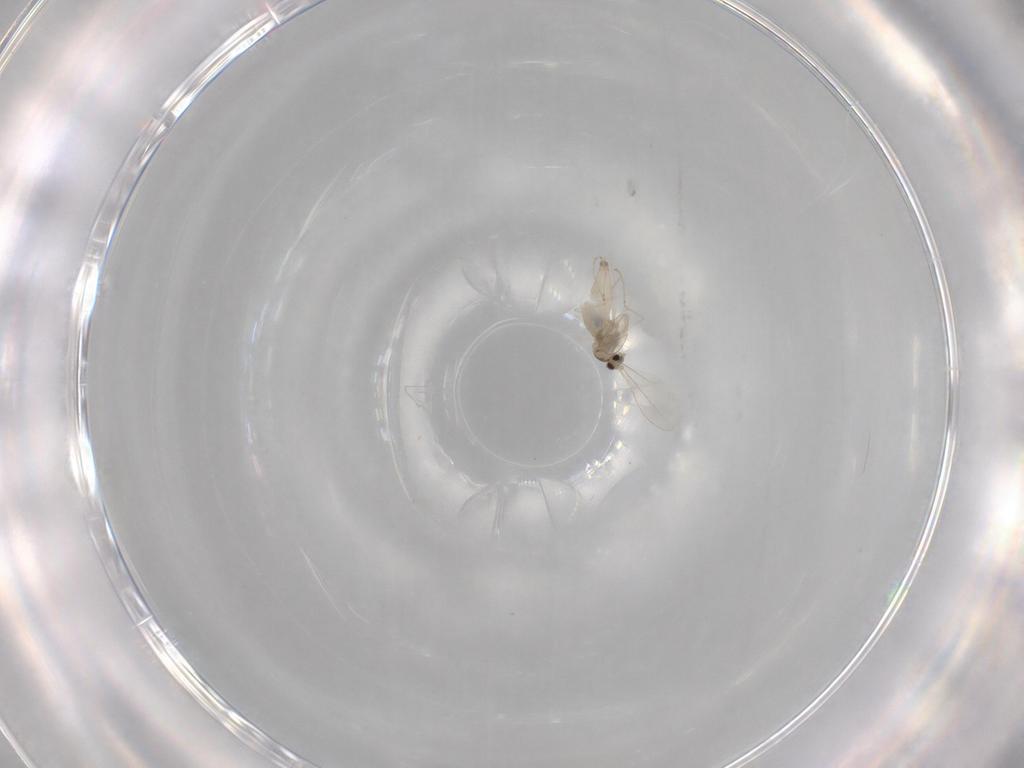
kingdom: Animalia
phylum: Arthropoda
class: Insecta
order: Diptera
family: Cecidomyiidae
